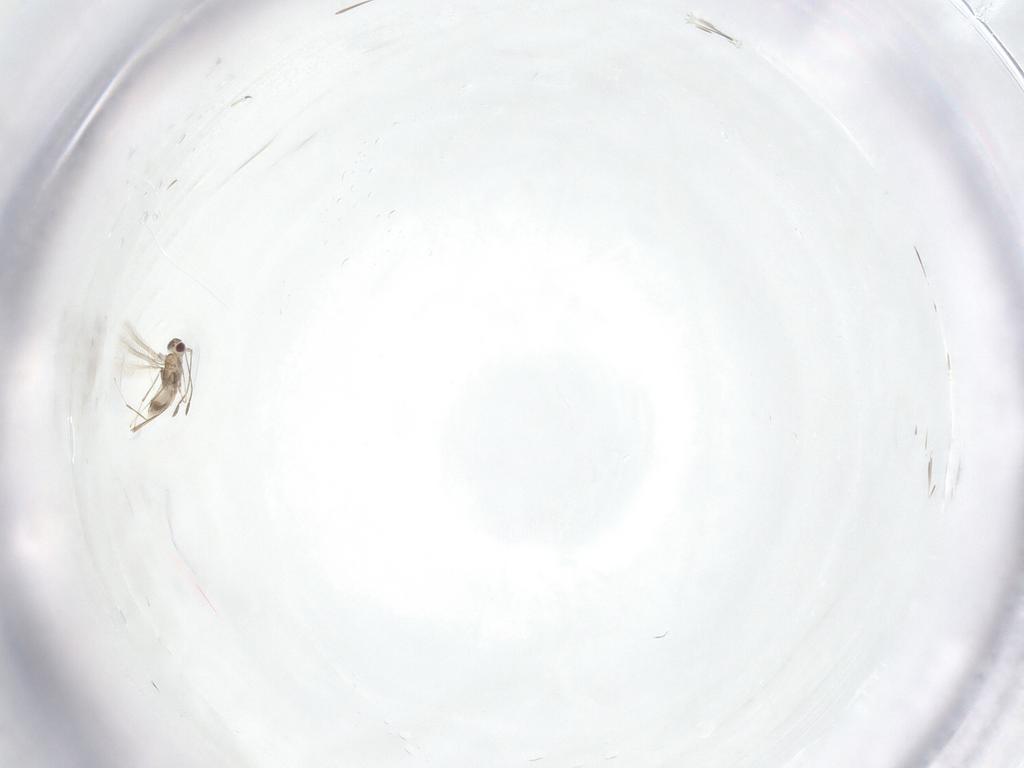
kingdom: Animalia
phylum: Arthropoda
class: Insecta
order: Hymenoptera
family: Mymaridae
